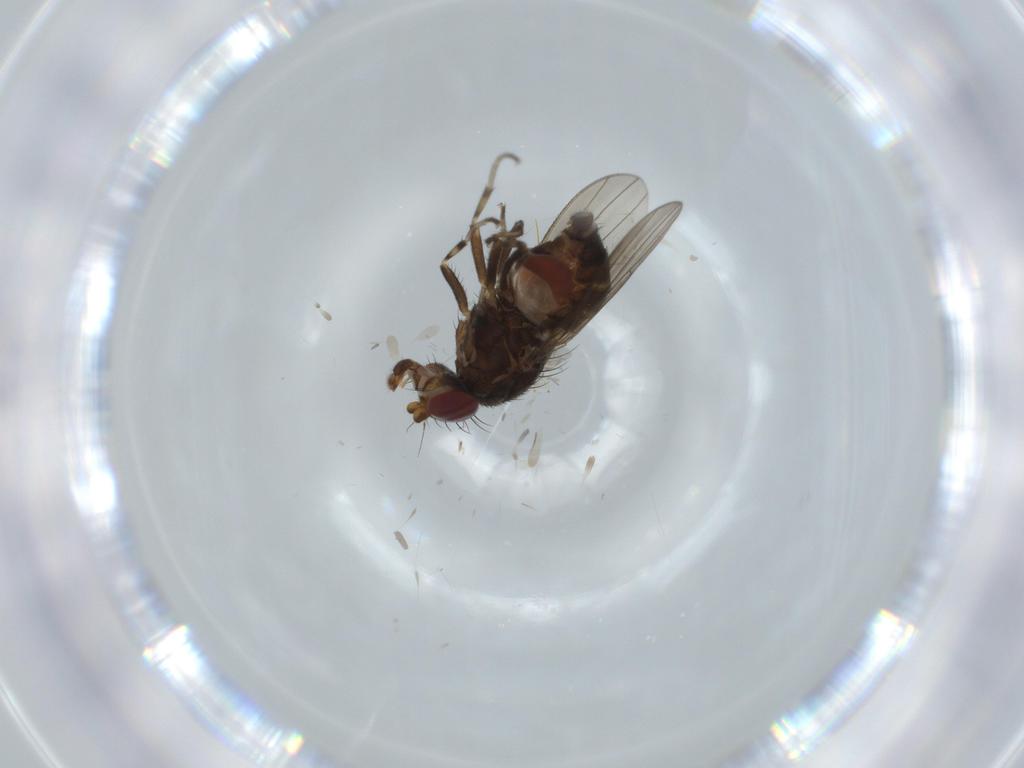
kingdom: Animalia
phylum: Arthropoda
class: Insecta
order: Diptera
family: Heleomyzidae
